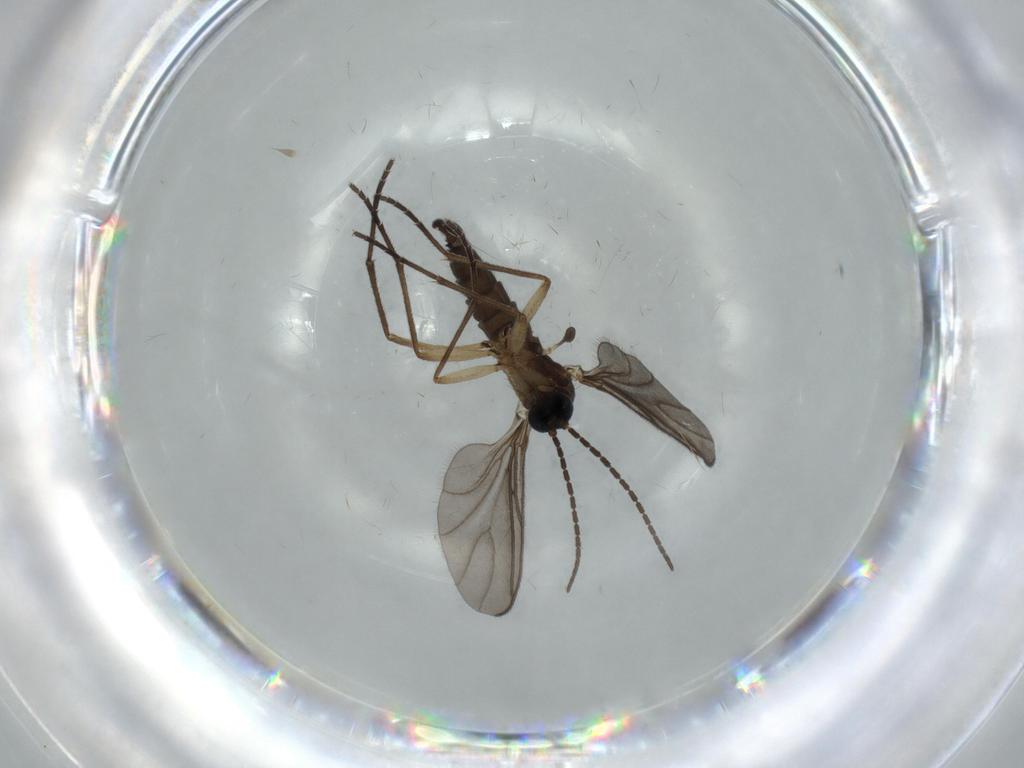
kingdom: Animalia
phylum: Arthropoda
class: Insecta
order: Diptera
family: Sciaridae
